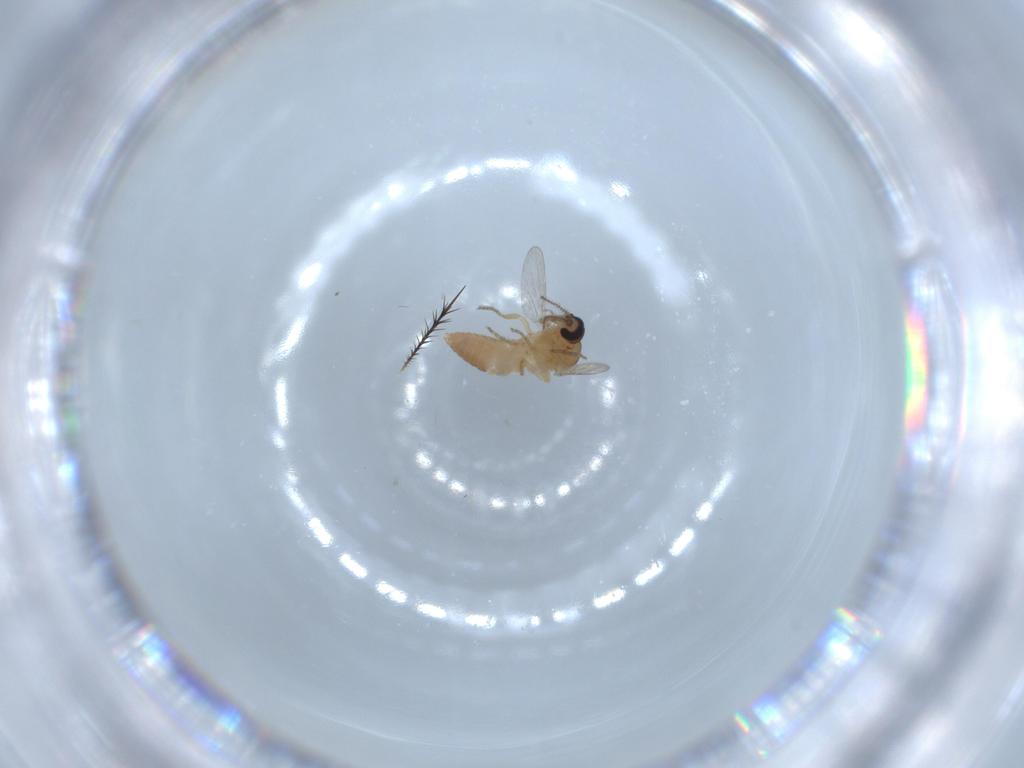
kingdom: Animalia
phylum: Arthropoda
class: Insecta
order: Diptera
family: Ceratopogonidae
